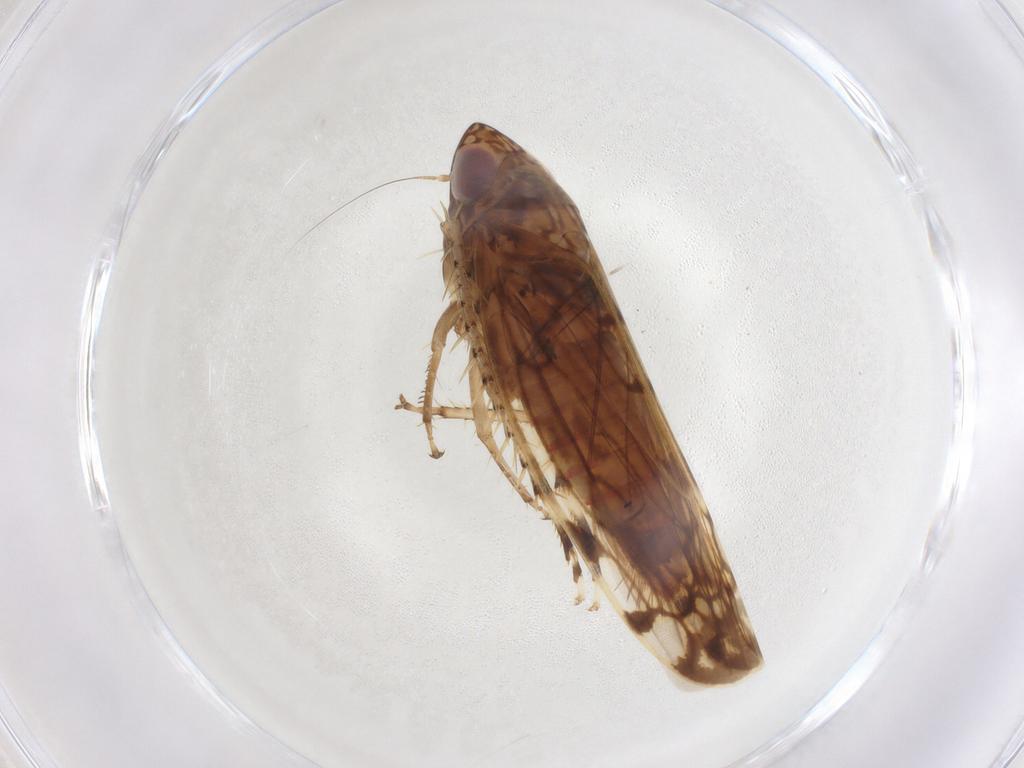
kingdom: Animalia
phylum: Arthropoda
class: Insecta
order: Hemiptera
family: Cicadellidae
